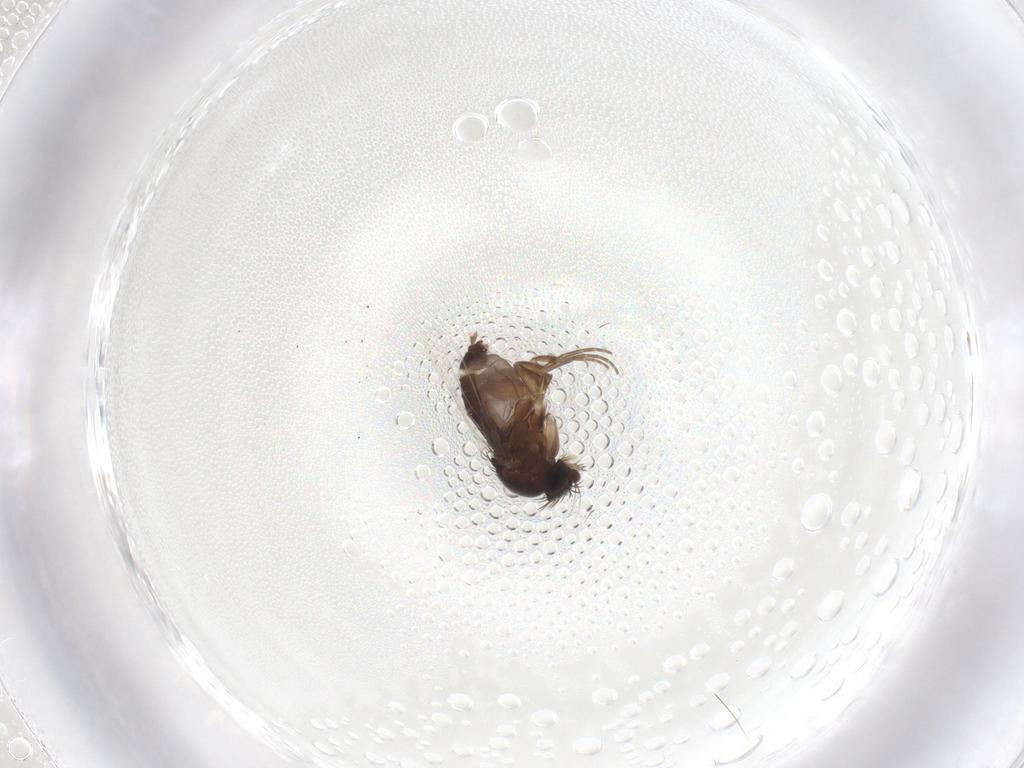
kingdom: Animalia
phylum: Arthropoda
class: Insecta
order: Diptera
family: Phoridae
